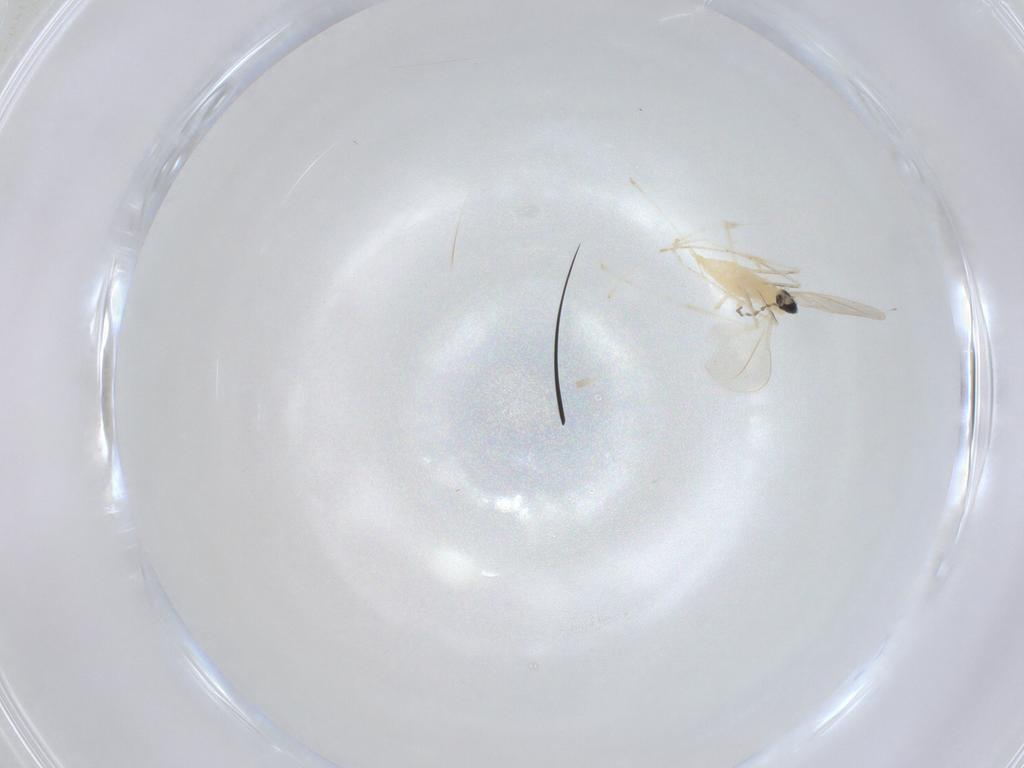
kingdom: Animalia
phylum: Arthropoda
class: Insecta
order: Diptera
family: Cecidomyiidae
